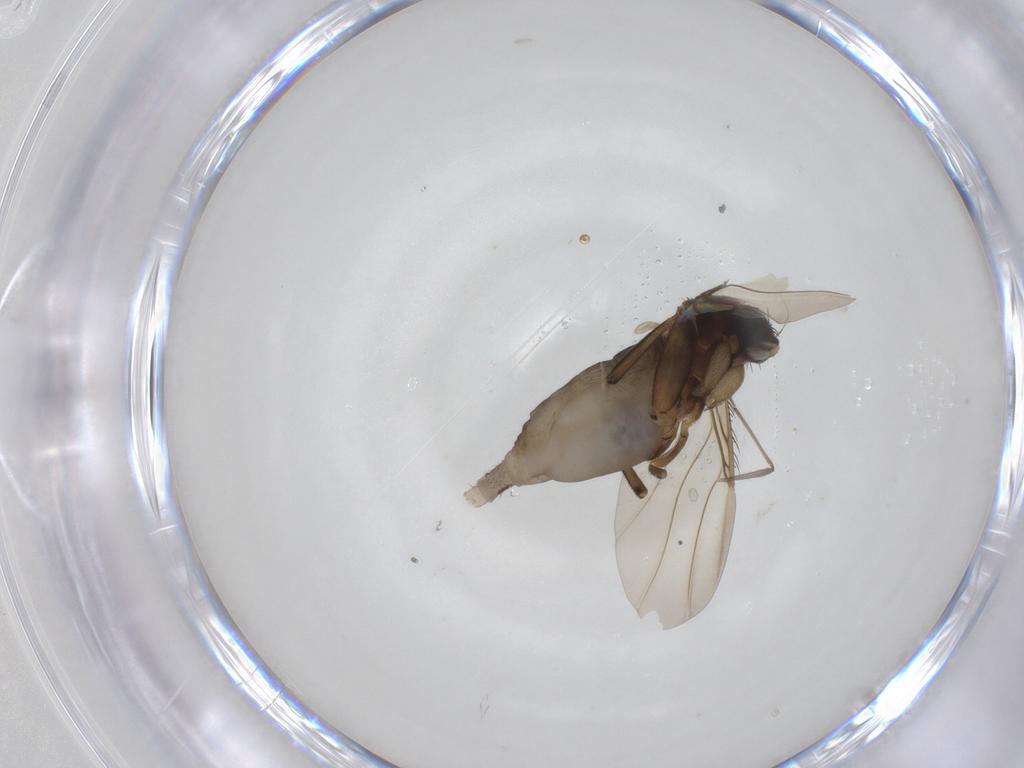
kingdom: Animalia
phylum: Arthropoda
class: Insecta
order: Diptera
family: Phoridae
